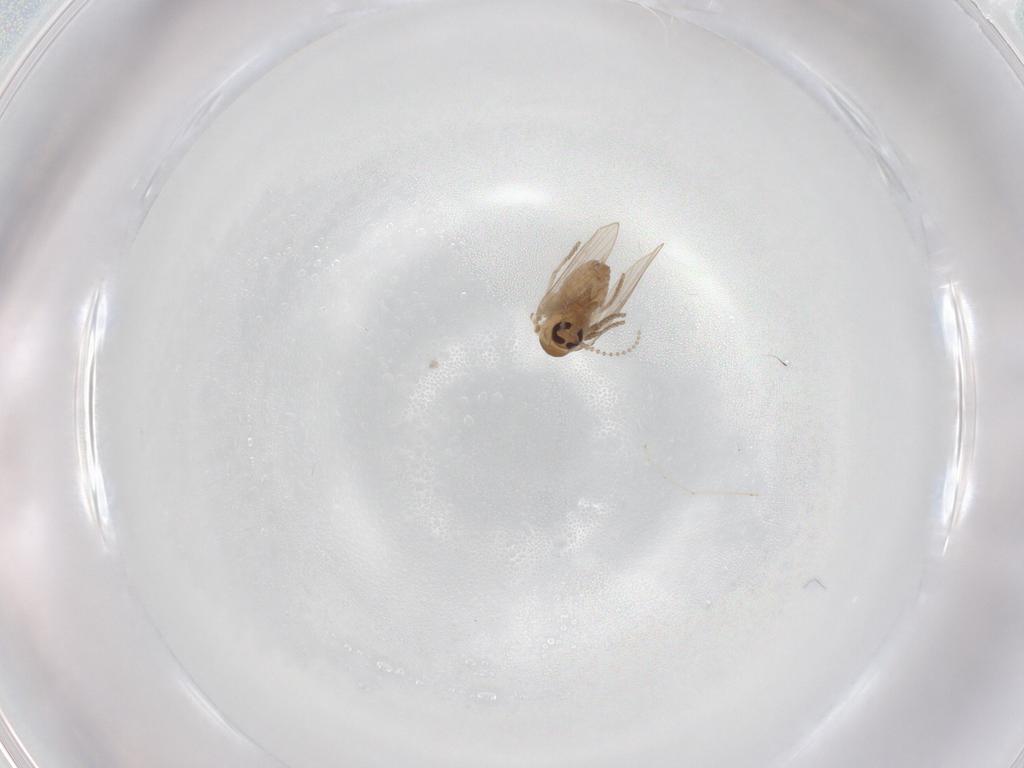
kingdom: Animalia
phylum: Arthropoda
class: Insecta
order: Diptera
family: Psychodidae
